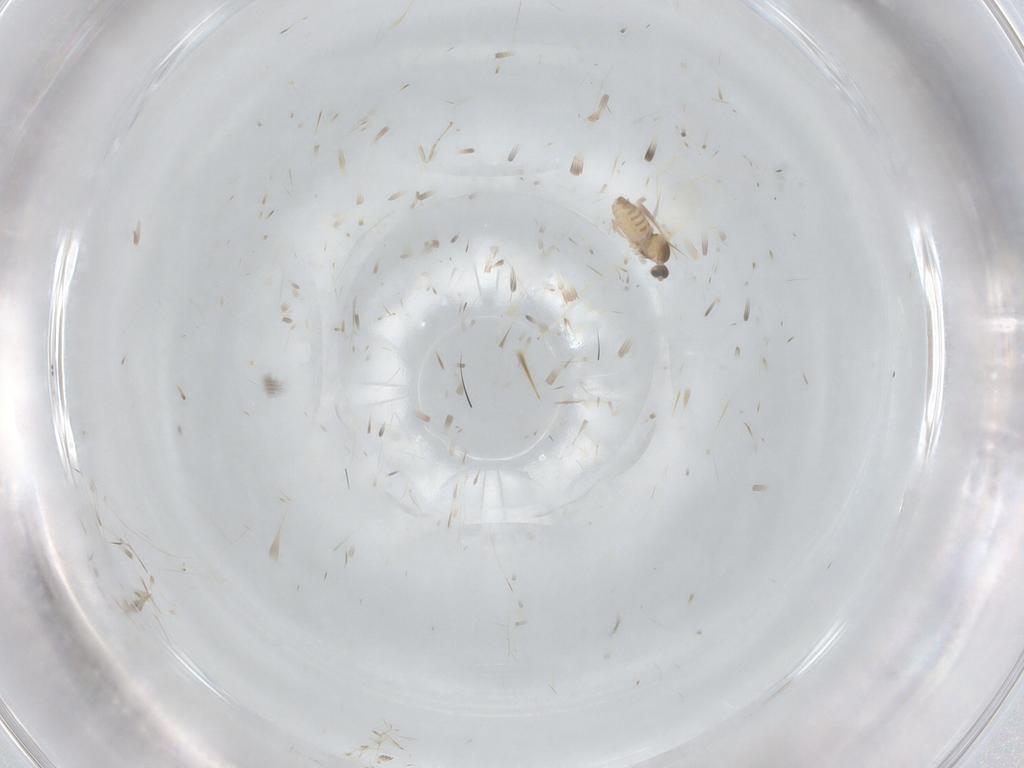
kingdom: Animalia
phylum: Arthropoda
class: Insecta
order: Diptera
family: Cecidomyiidae
